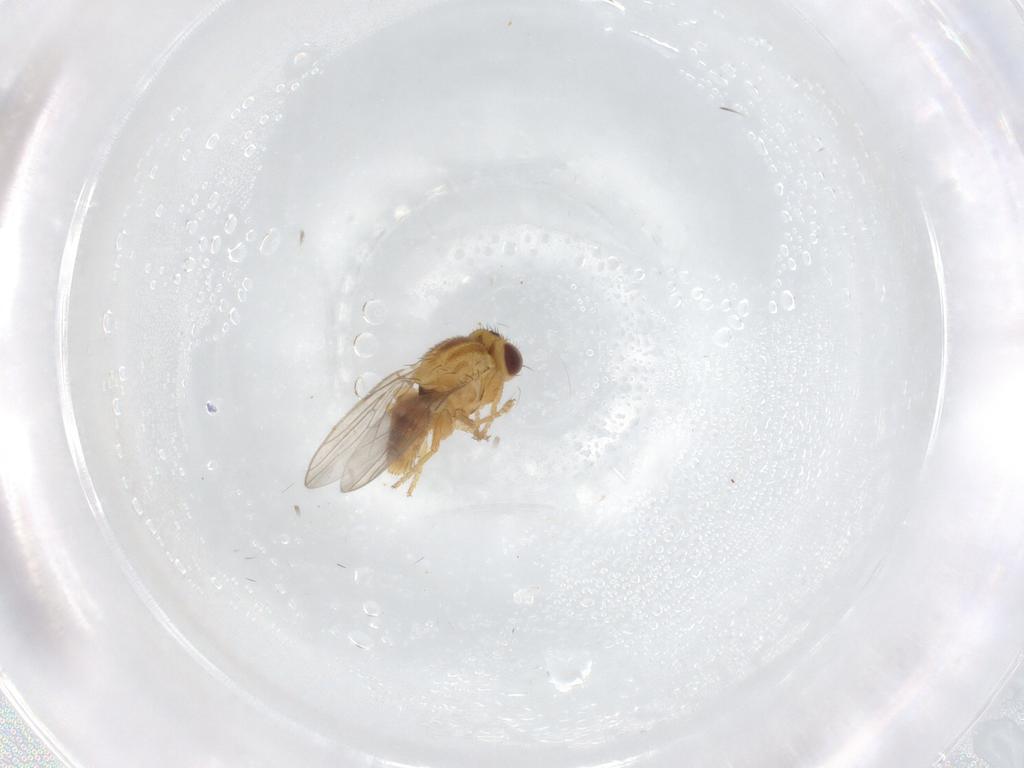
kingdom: Animalia
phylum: Arthropoda
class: Insecta
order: Diptera
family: Chloropidae
